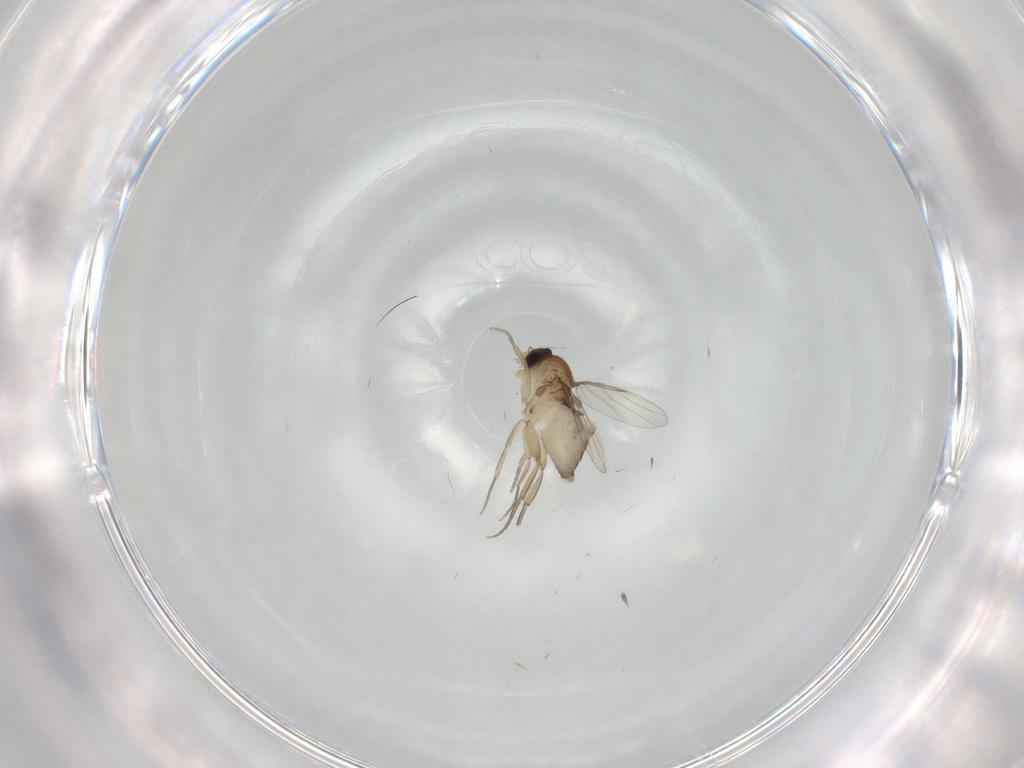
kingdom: Animalia
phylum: Arthropoda
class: Insecta
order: Diptera
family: Phoridae
